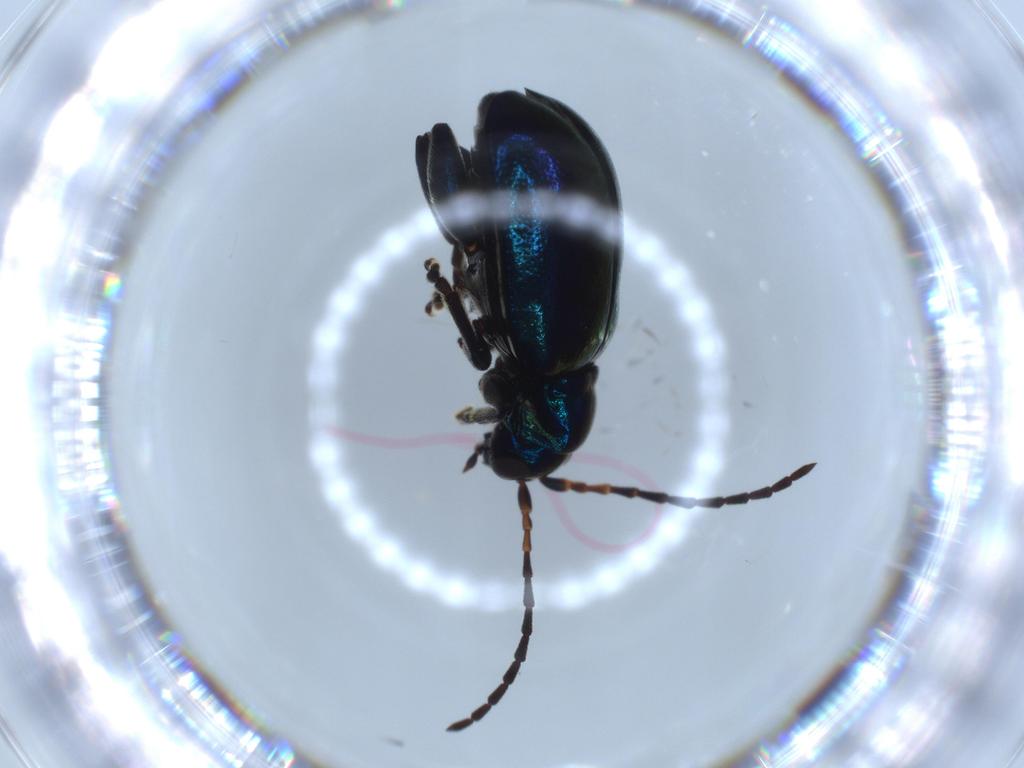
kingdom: Animalia
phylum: Arthropoda
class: Insecta
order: Coleoptera
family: Chrysomelidae
